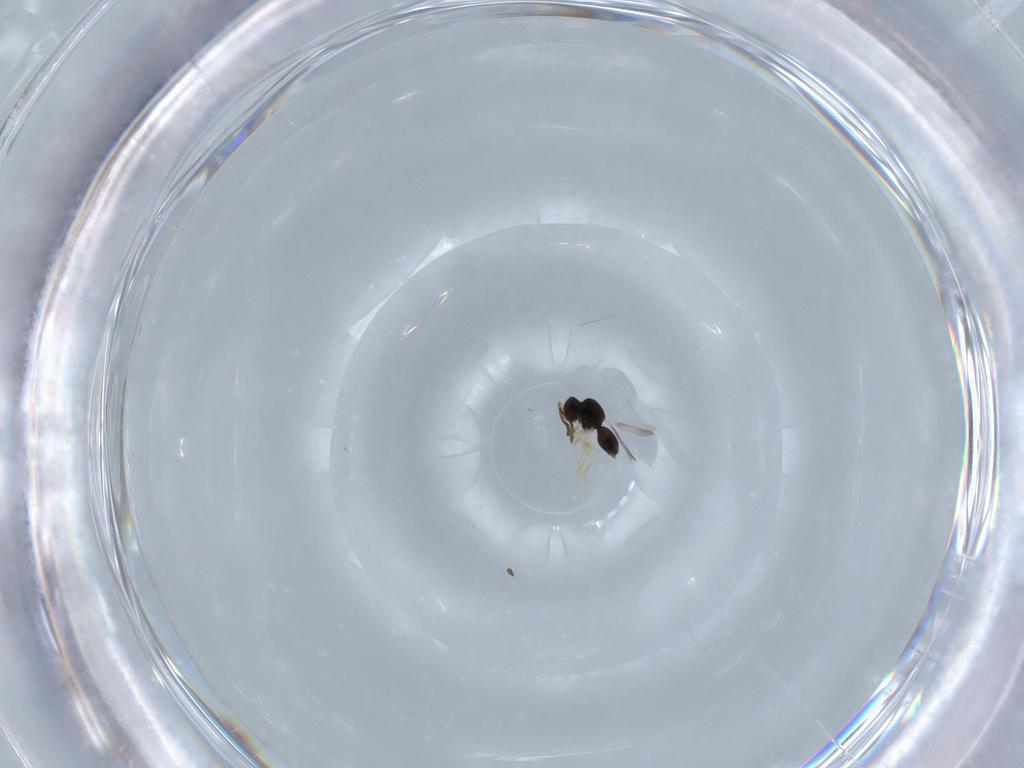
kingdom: Animalia
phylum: Arthropoda
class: Insecta
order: Hymenoptera
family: Ceraphronidae
